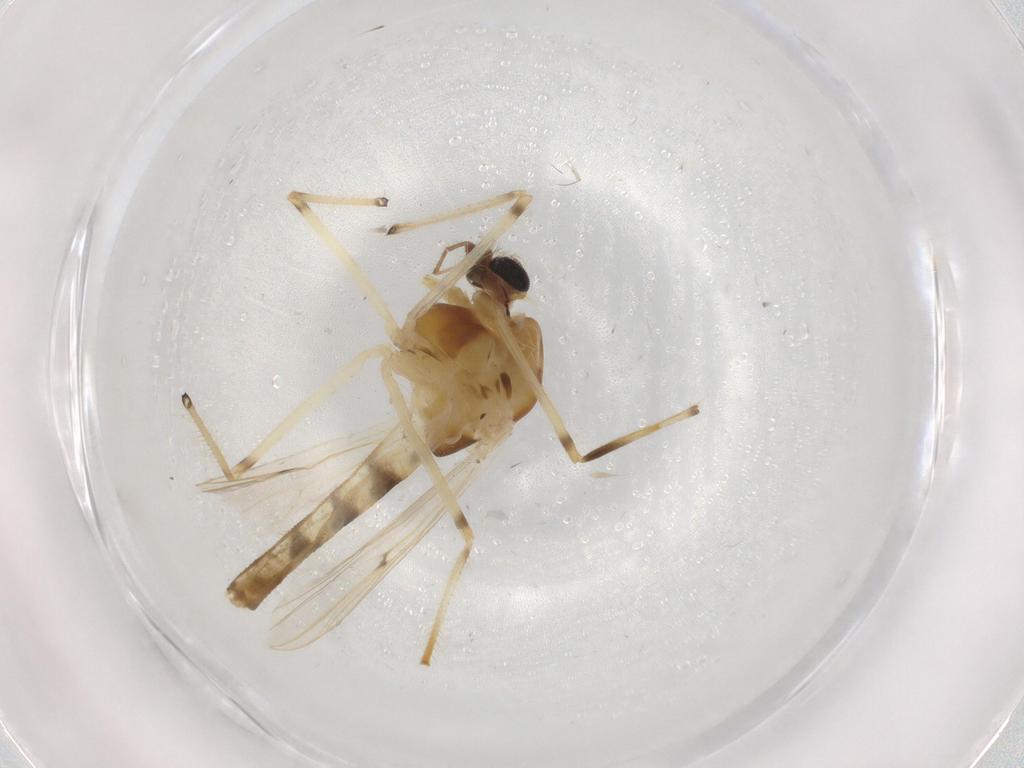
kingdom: Animalia
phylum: Arthropoda
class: Insecta
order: Diptera
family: Chironomidae
